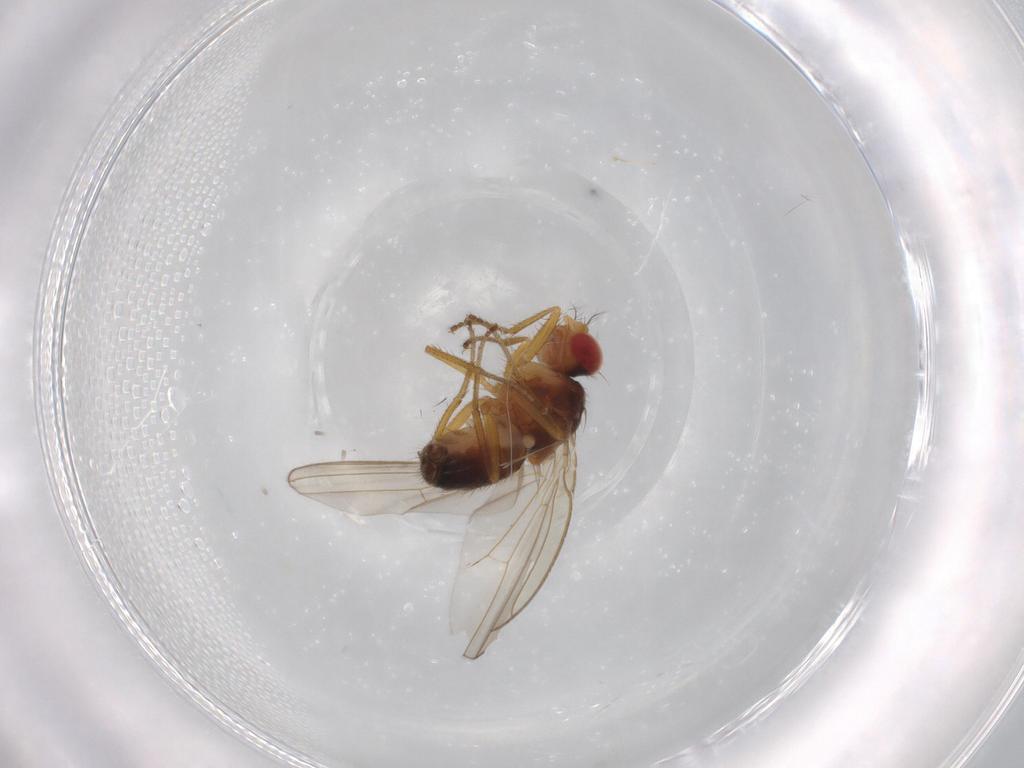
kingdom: Animalia
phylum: Arthropoda
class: Insecta
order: Diptera
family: Drosophilidae
